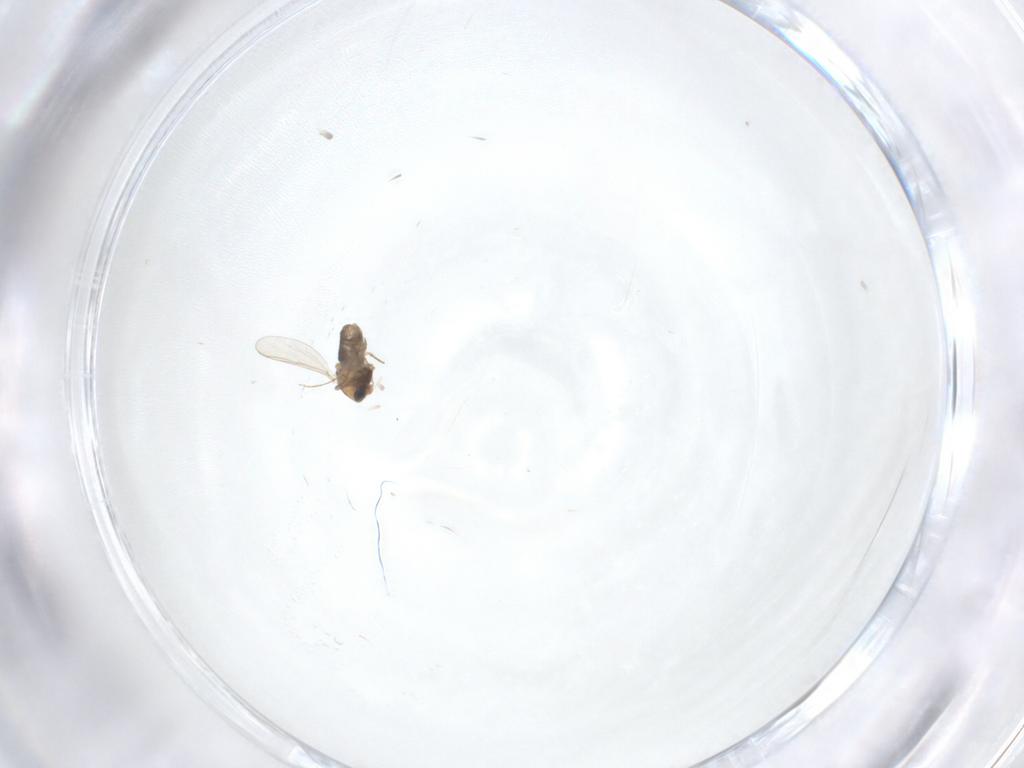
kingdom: Animalia
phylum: Arthropoda
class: Insecta
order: Diptera
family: Chironomidae
